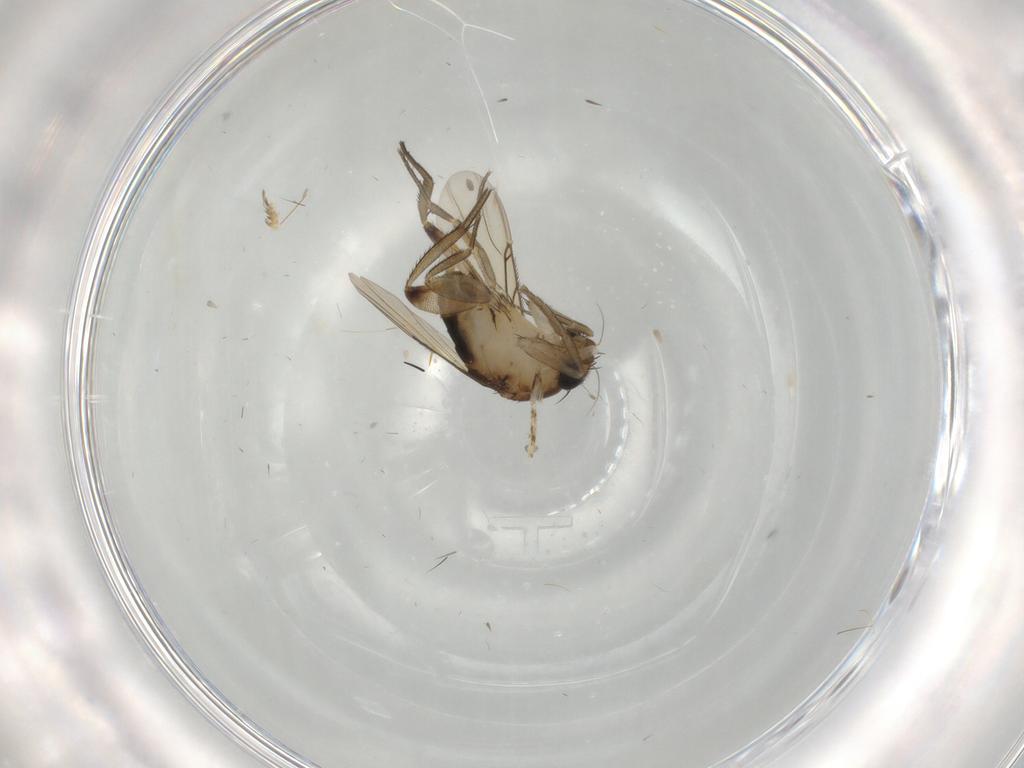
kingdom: Animalia
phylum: Arthropoda
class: Insecta
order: Diptera
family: Phoridae
